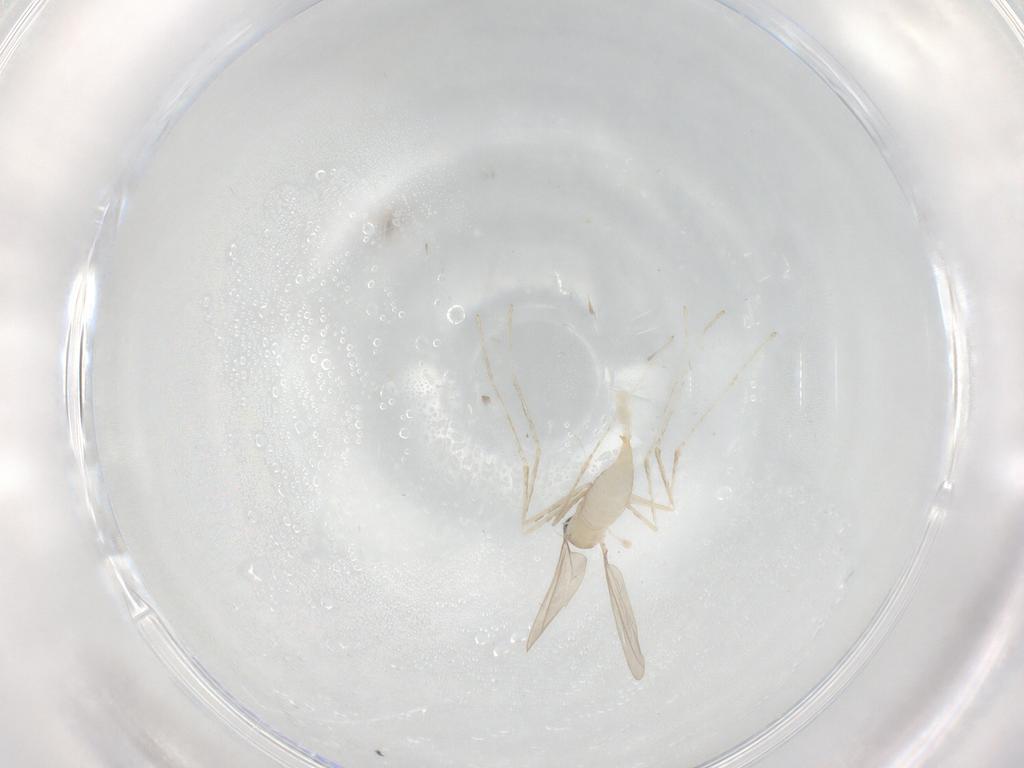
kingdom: Animalia
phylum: Arthropoda
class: Insecta
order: Diptera
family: Cecidomyiidae
